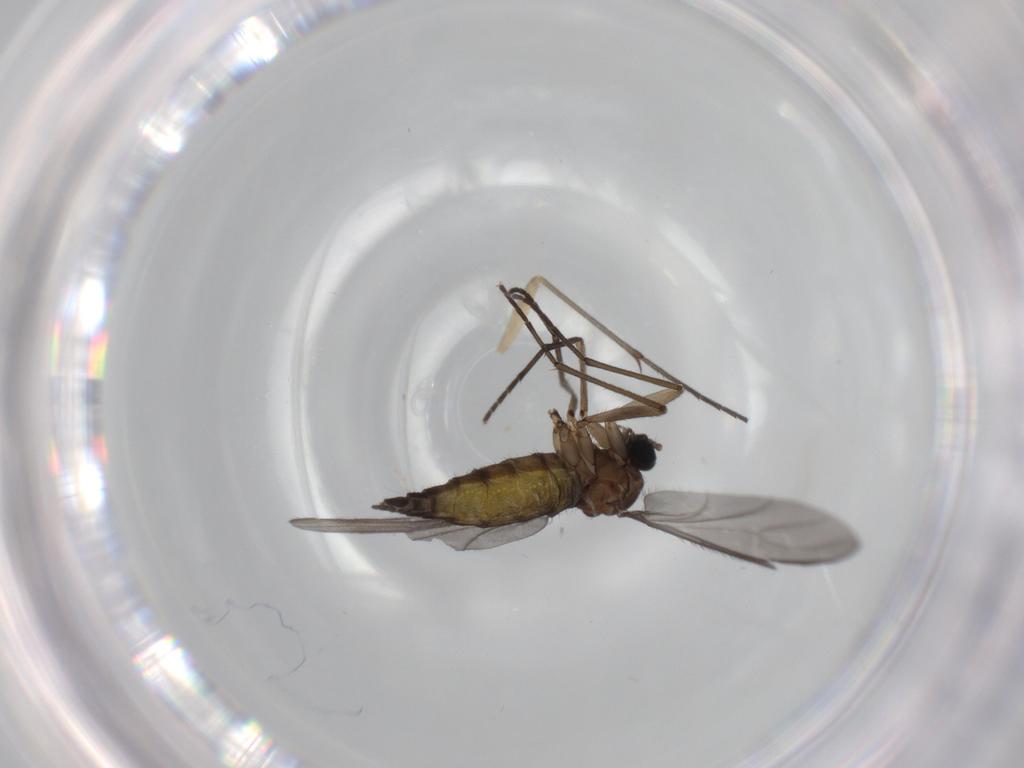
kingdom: Animalia
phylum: Arthropoda
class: Insecta
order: Diptera
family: Sciaridae
